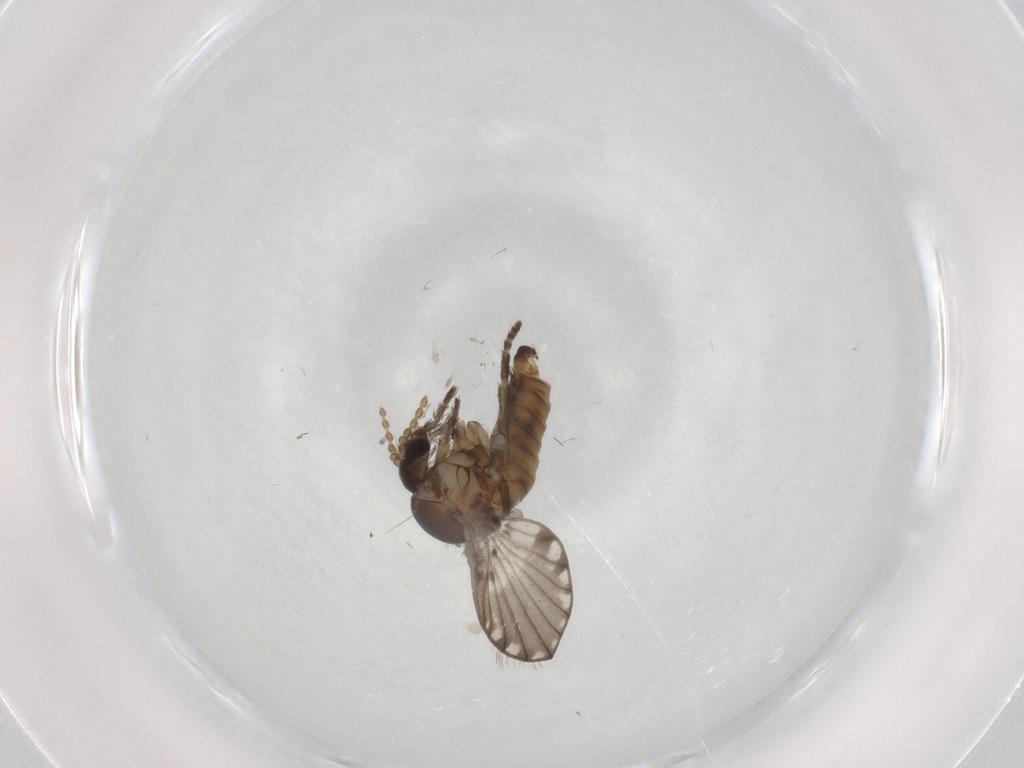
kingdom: Animalia
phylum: Arthropoda
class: Insecta
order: Diptera
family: Psychodidae
